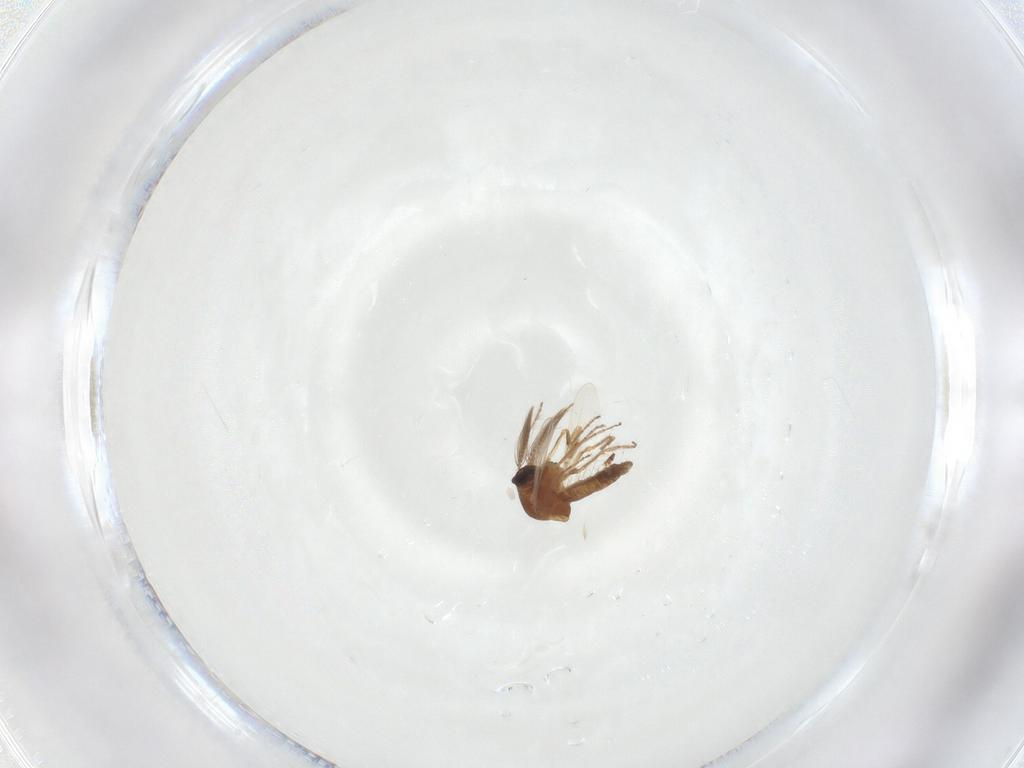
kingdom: Animalia
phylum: Arthropoda
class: Insecta
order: Diptera
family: Ceratopogonidae
